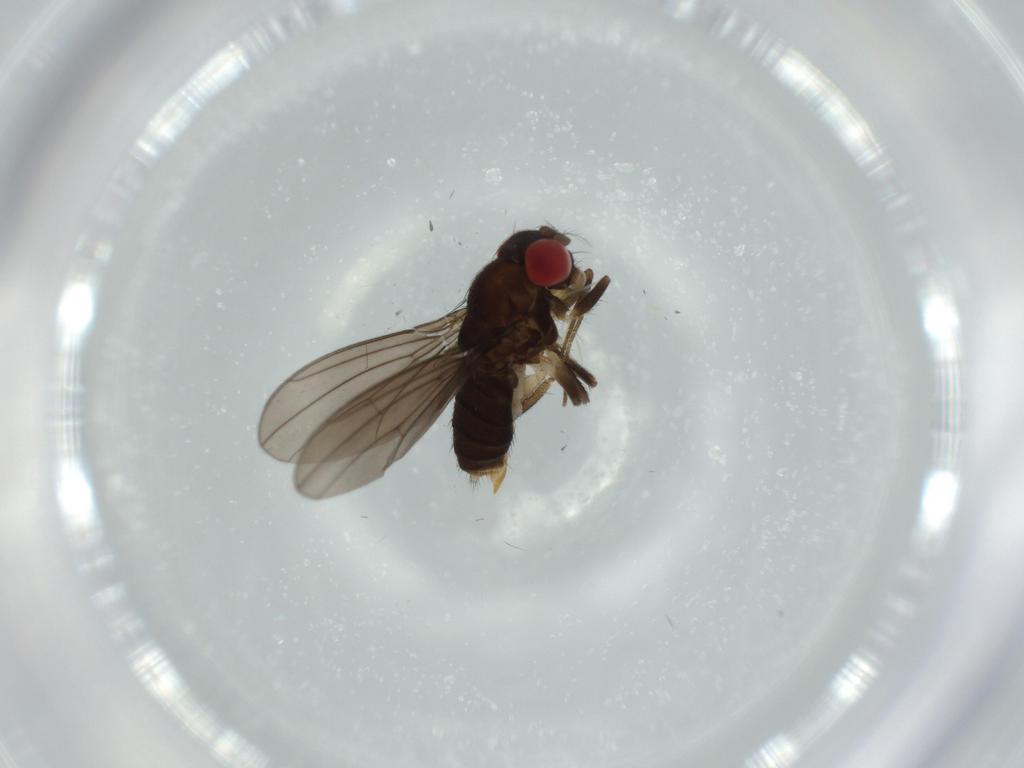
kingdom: Animalia
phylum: Arthropoda
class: Insecta
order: Diptera
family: Drosophilidae
